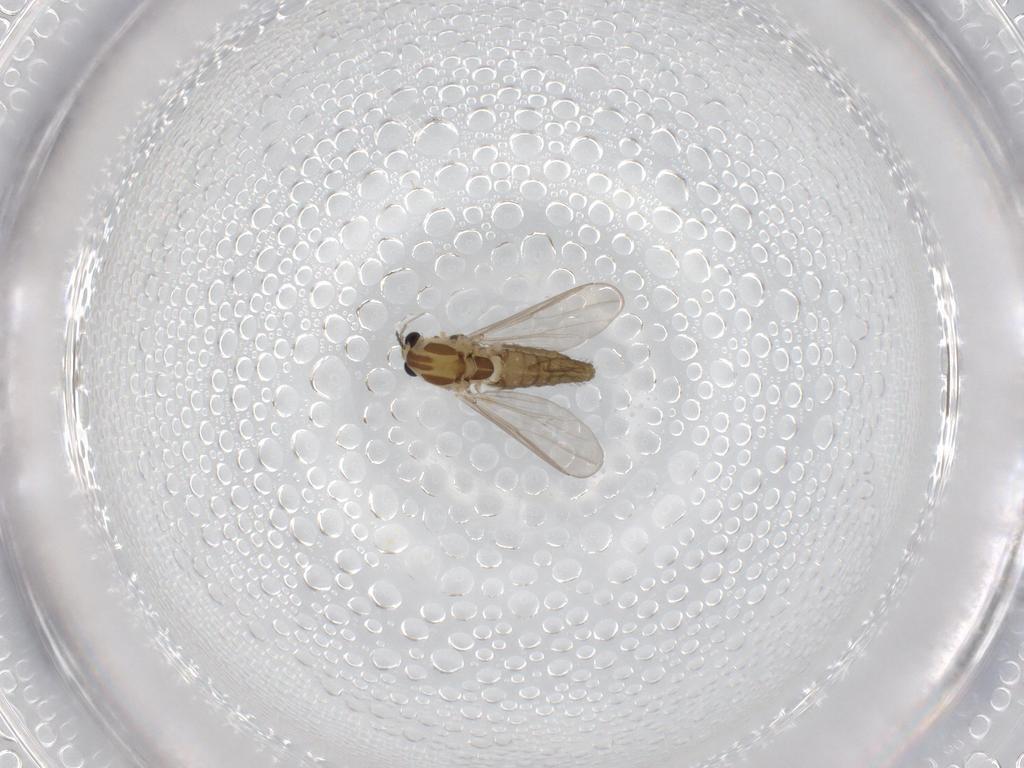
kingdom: Animalia
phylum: Arthropoda
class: Insecta
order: Diptera
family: Chironomidae
